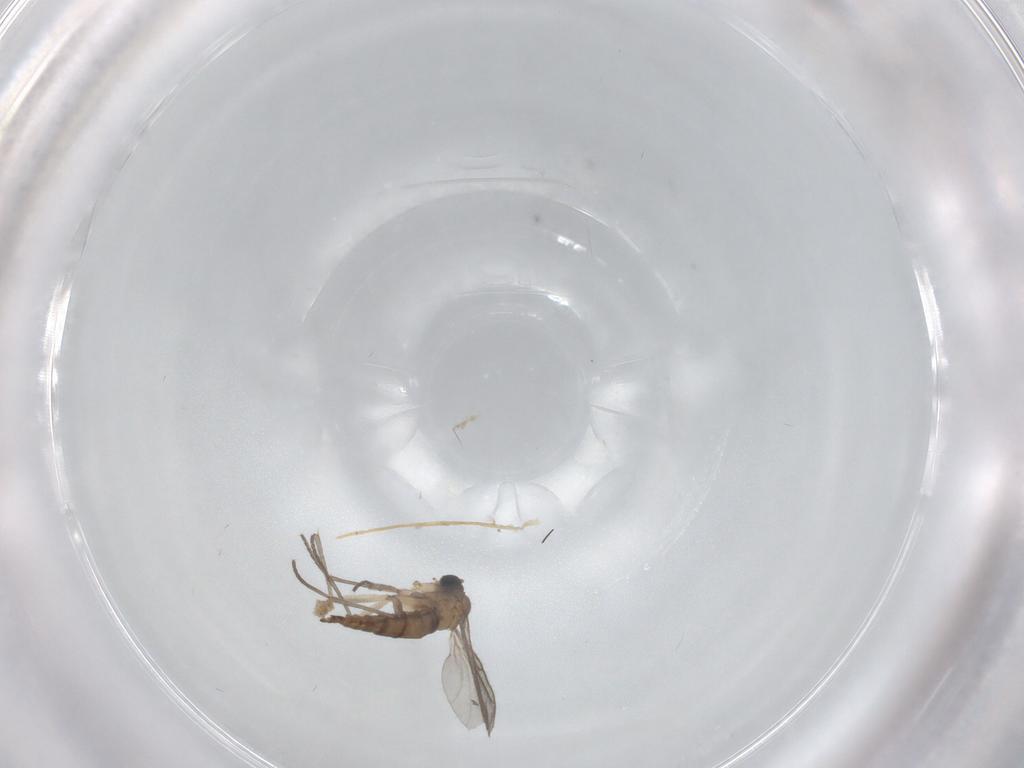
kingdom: Animalia
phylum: Arthropoda
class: Insecta
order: Diptera
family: Sciaridae
